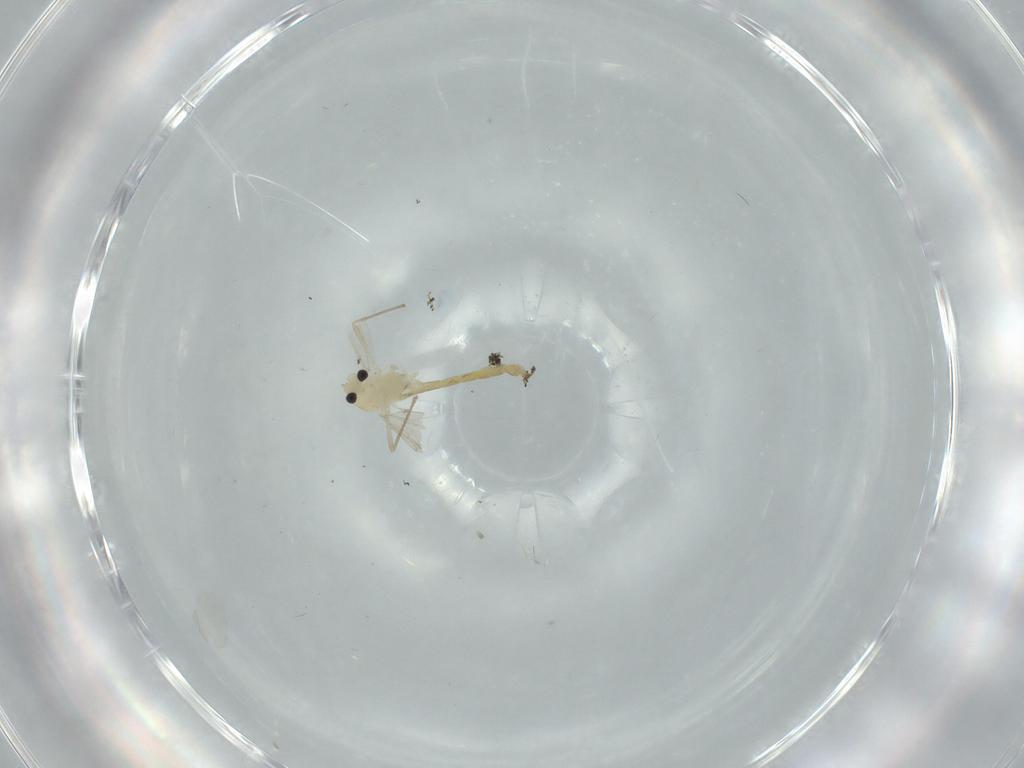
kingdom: Animalia
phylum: Arthropoda
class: Insecta
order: Diptera
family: Chironomidae
